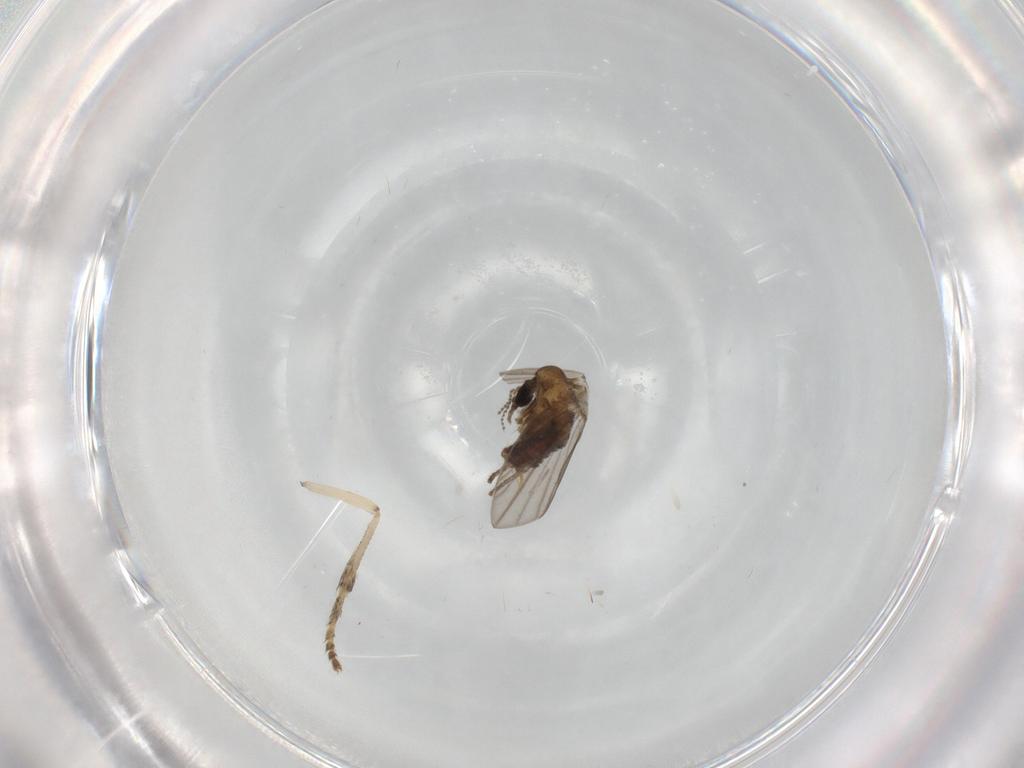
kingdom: Animalia
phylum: Arthropoda
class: Insecta
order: Diptera
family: Psychodidae
